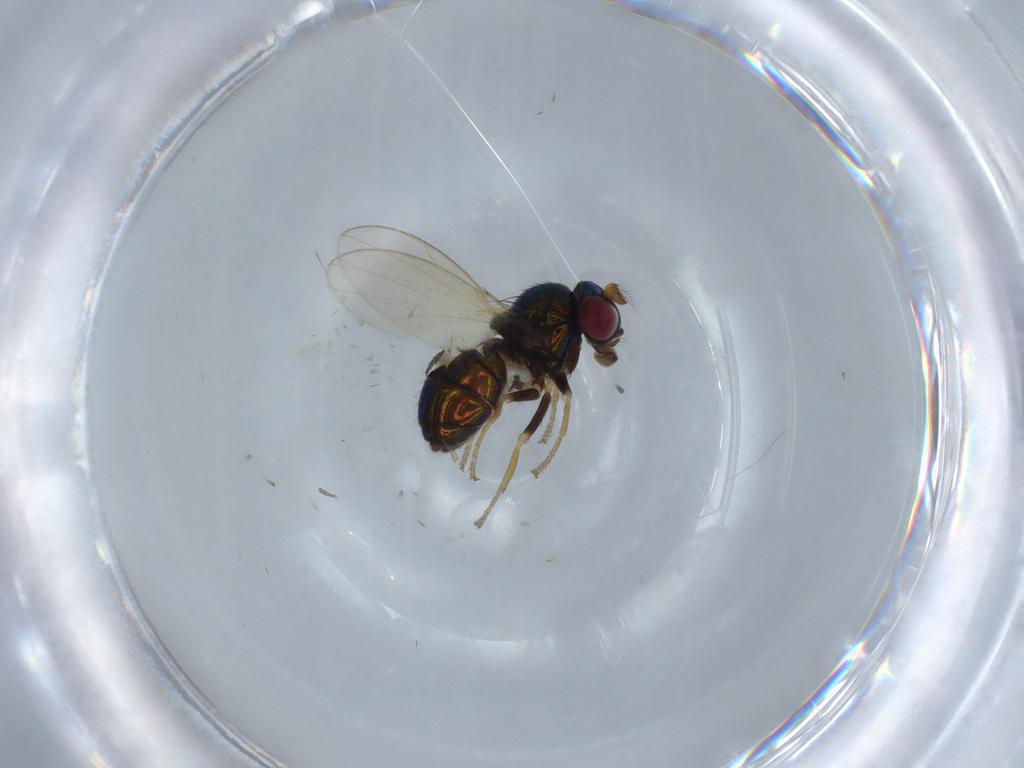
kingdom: Animalia
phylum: Arthropoda
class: Insecta
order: Diptera
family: Ephydridae
